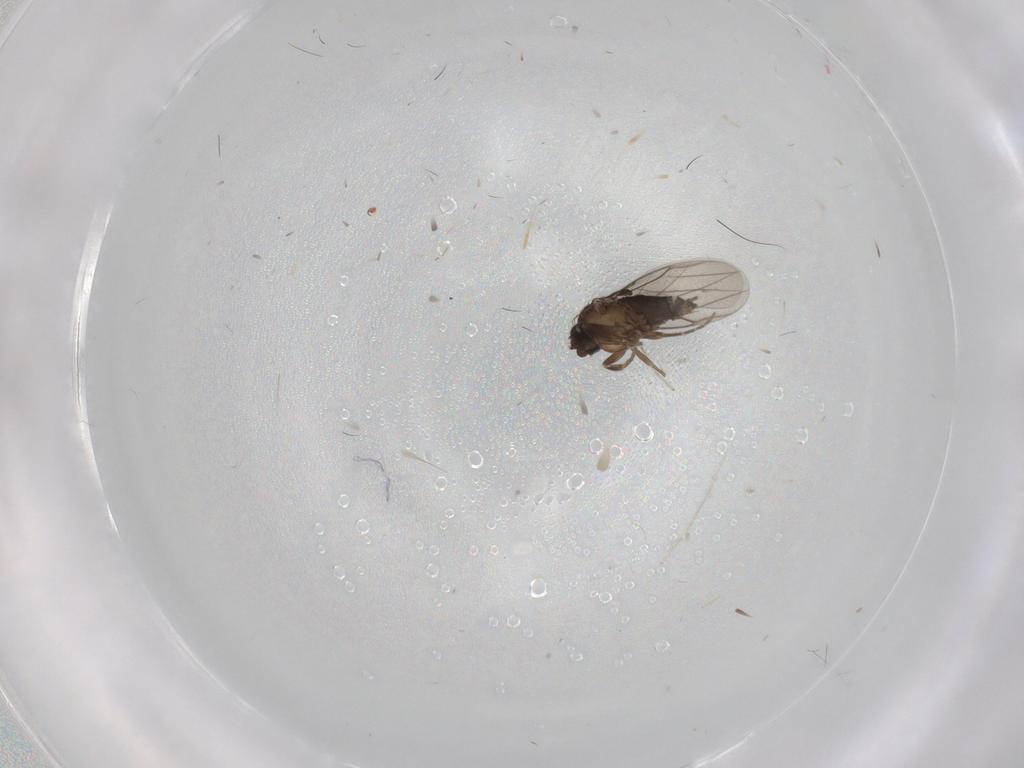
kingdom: Animalia
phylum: Arthropoda
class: Insecta
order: Diptera
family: Phoridae
